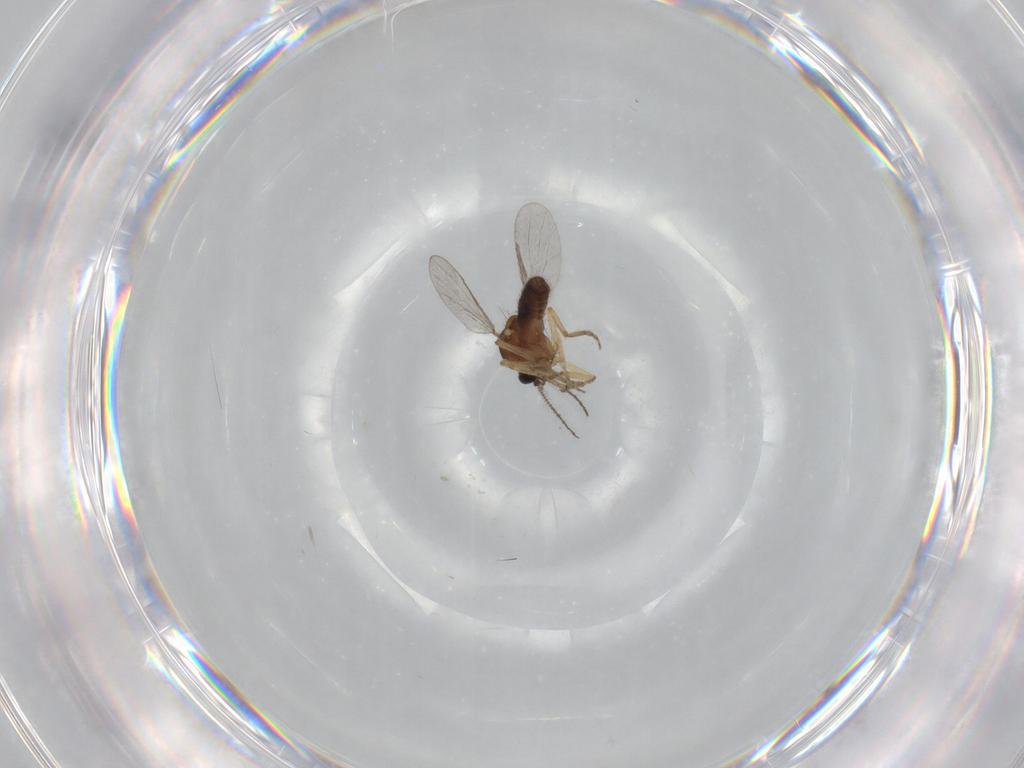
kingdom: Animalia
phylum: Arthropoda
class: Insecta
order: Diptera
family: Ceratopogonidae
